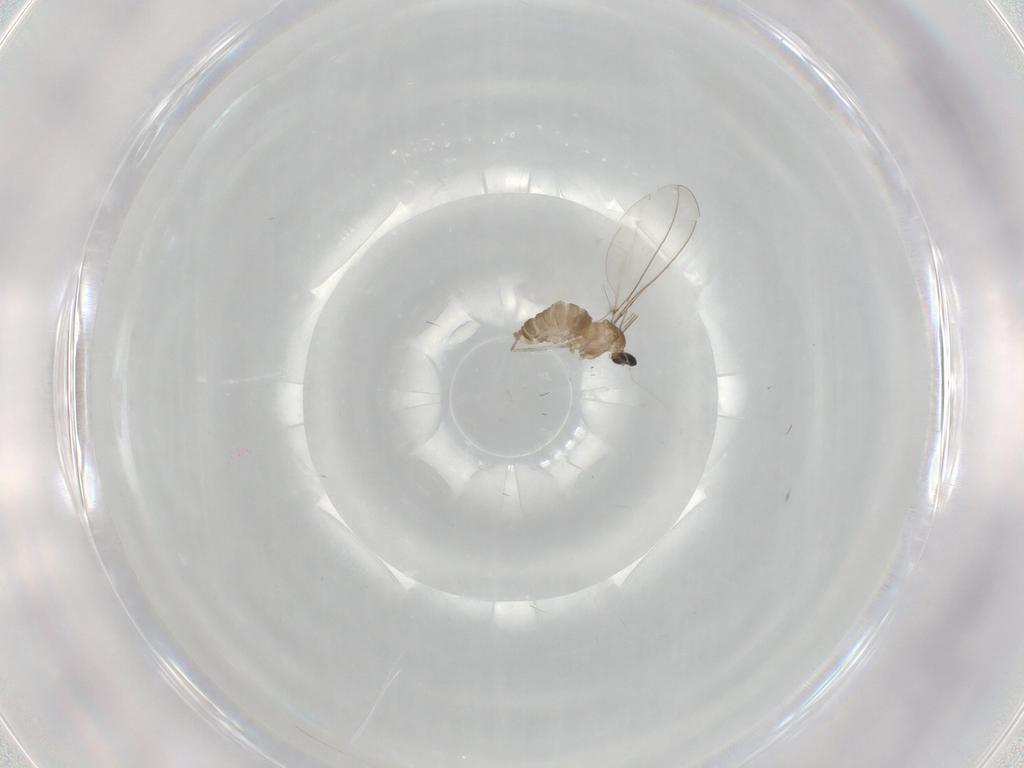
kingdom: Animalia
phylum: Arthropoda
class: Insecta
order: Diptera
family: Cecidomyiidae
